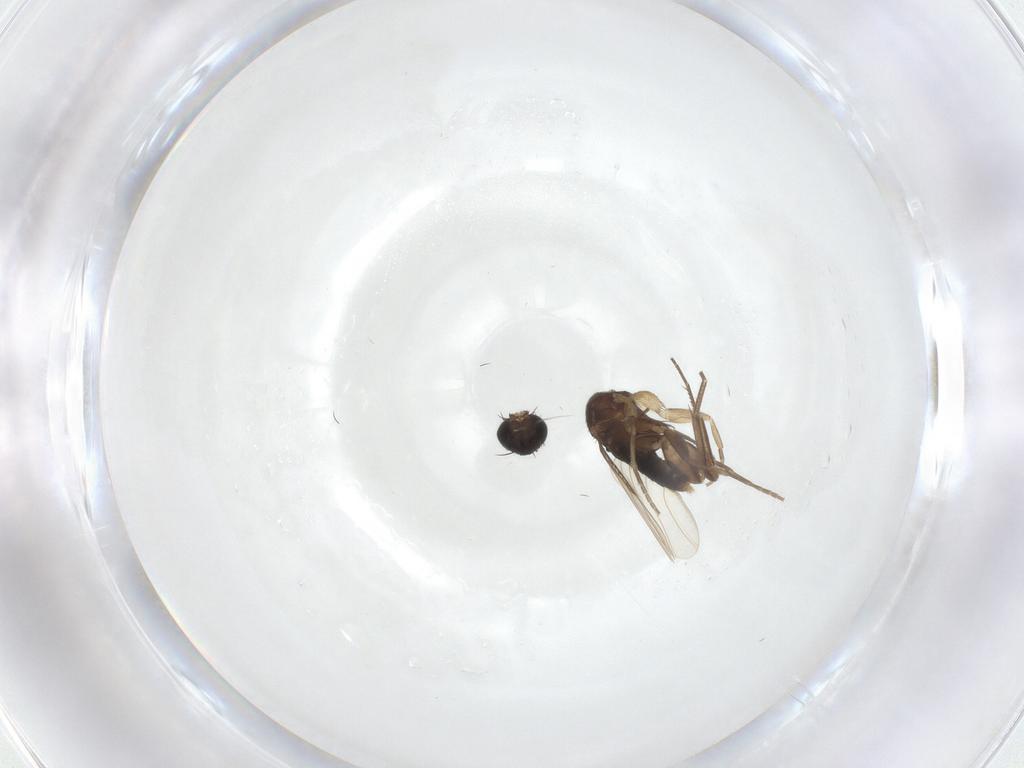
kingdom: Animalia
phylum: Arthropoda
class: Insecta
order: Diptera
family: Phoridae
